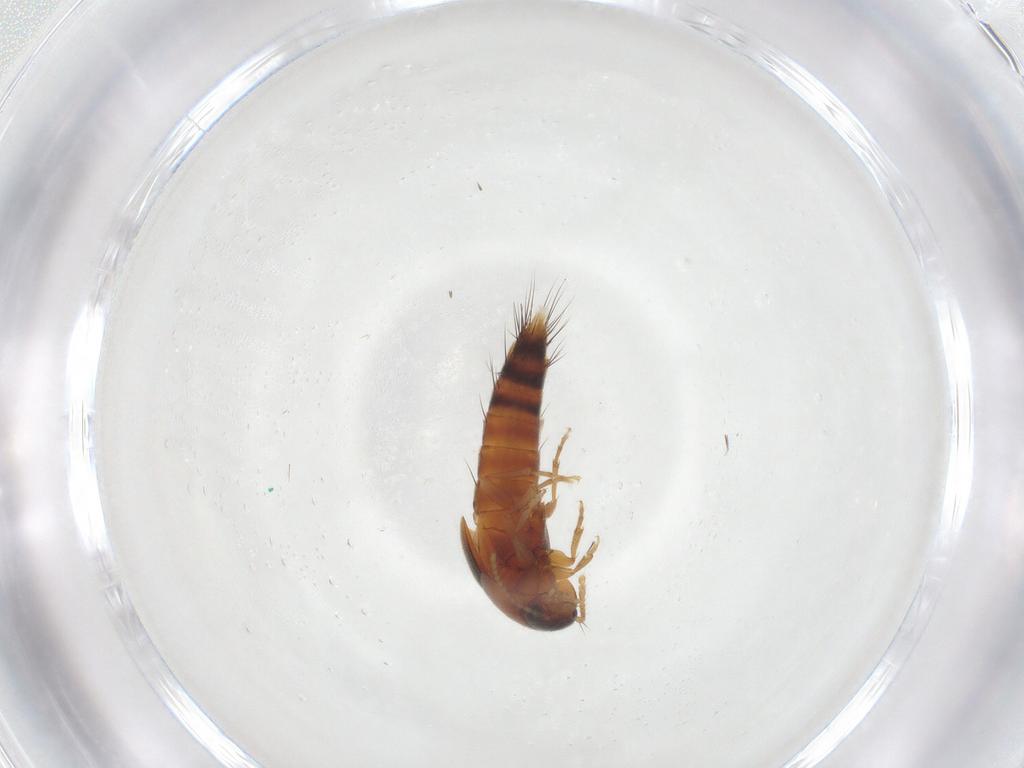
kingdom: Animalia
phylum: Arthropoda
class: Insecta
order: Coleoptera
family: Staphylinidae
